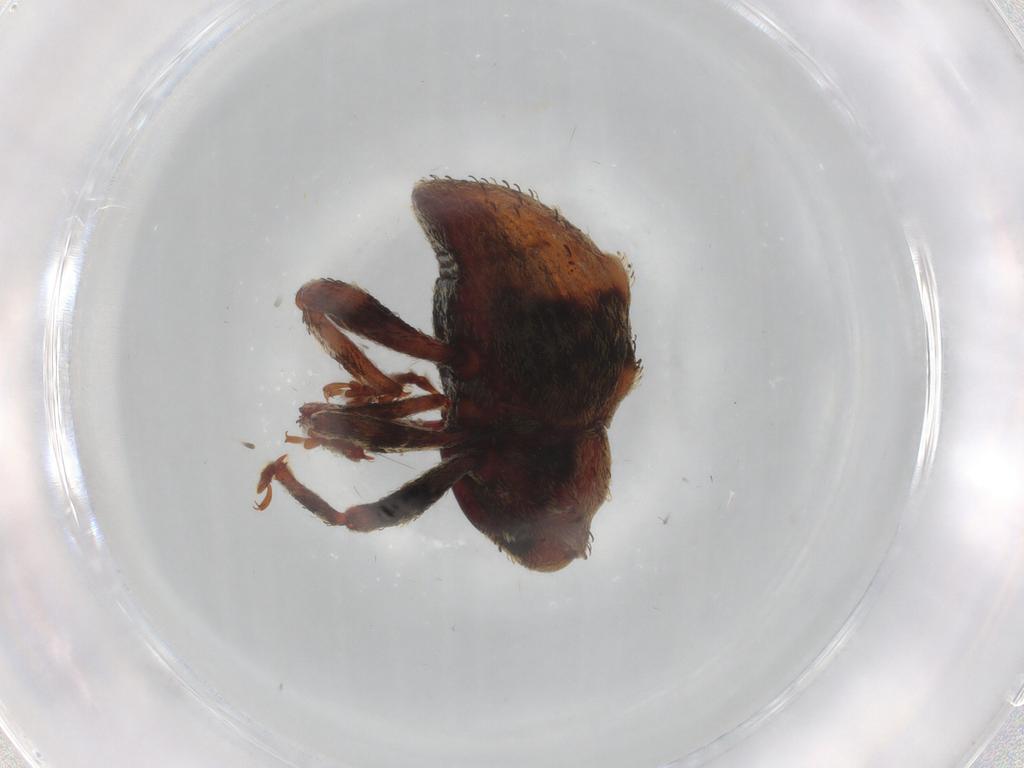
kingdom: Animalia
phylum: Arthropoda
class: Insecta
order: Coleoptera
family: Curculionidae
